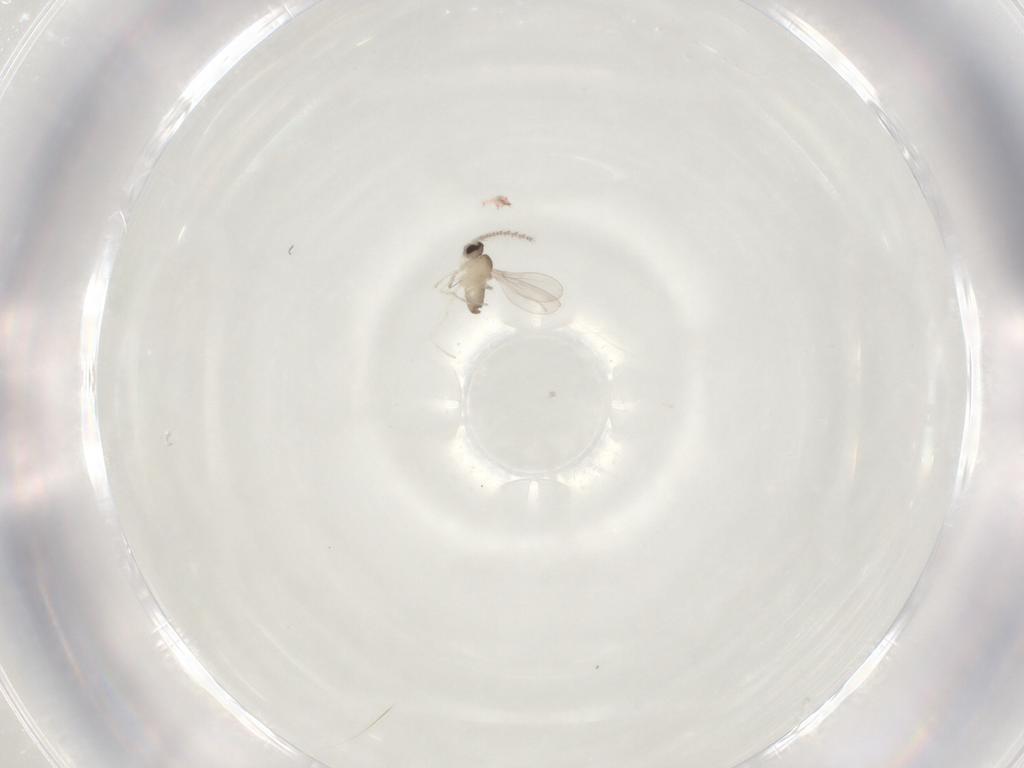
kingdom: Animalia
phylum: Arthropoda
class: Insecta
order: Diptera
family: Cecidomyiidae
